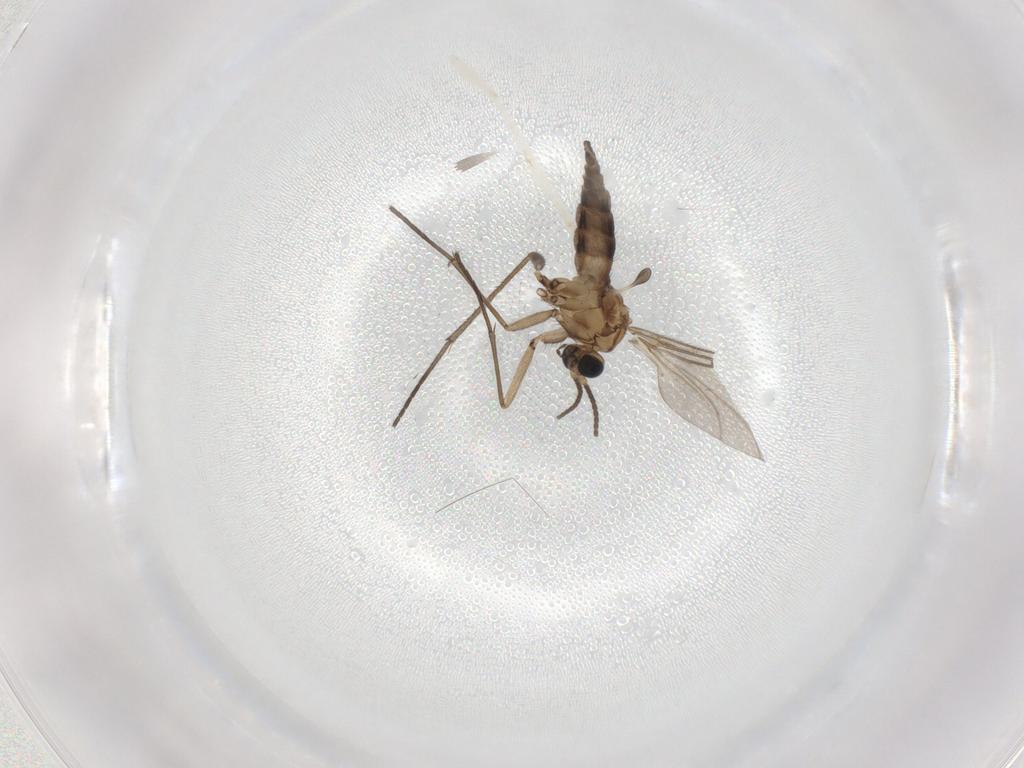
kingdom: Animalia
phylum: Arthropoda
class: Insecta
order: Diptera
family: Sciaridae
